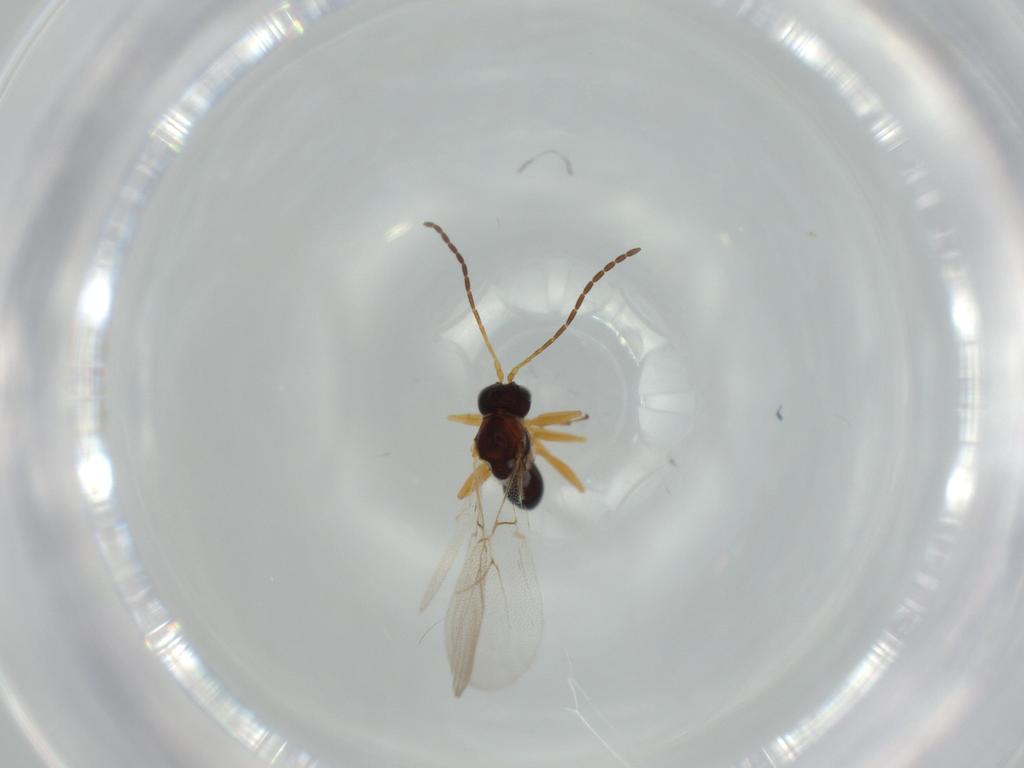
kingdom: Animalia
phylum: Arthropoda
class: Insecta
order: Hymenoptera
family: Figitidae
